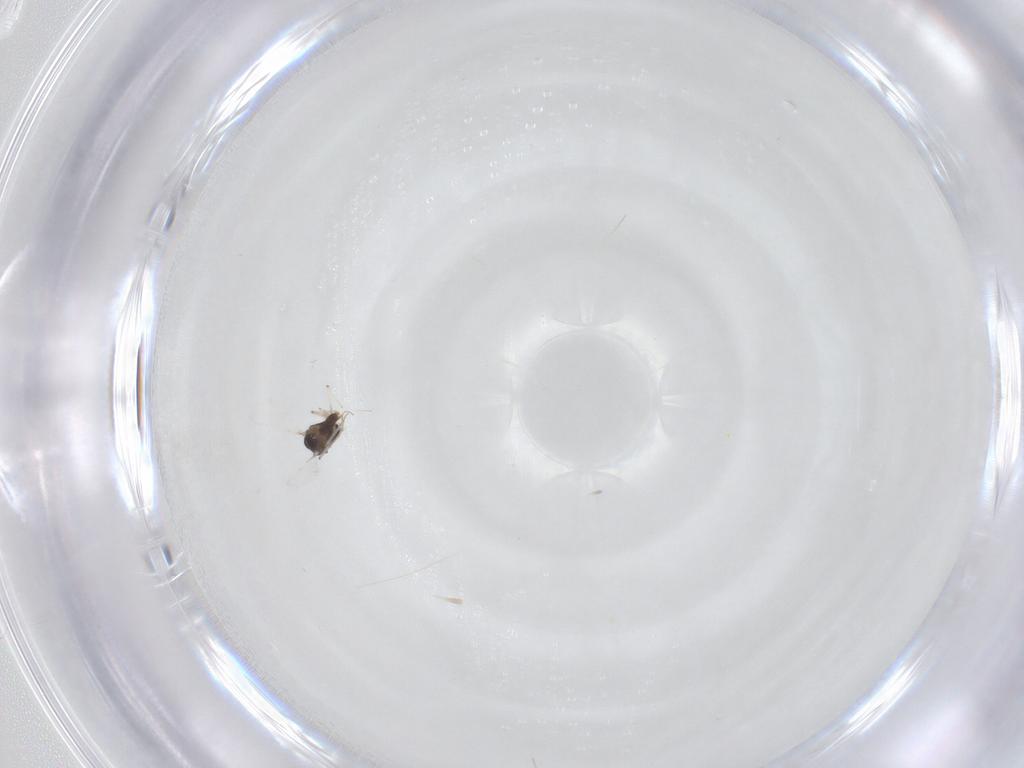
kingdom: Animalia
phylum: Arthropoda
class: Insecta
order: Diptera
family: Cecidomyiidae
